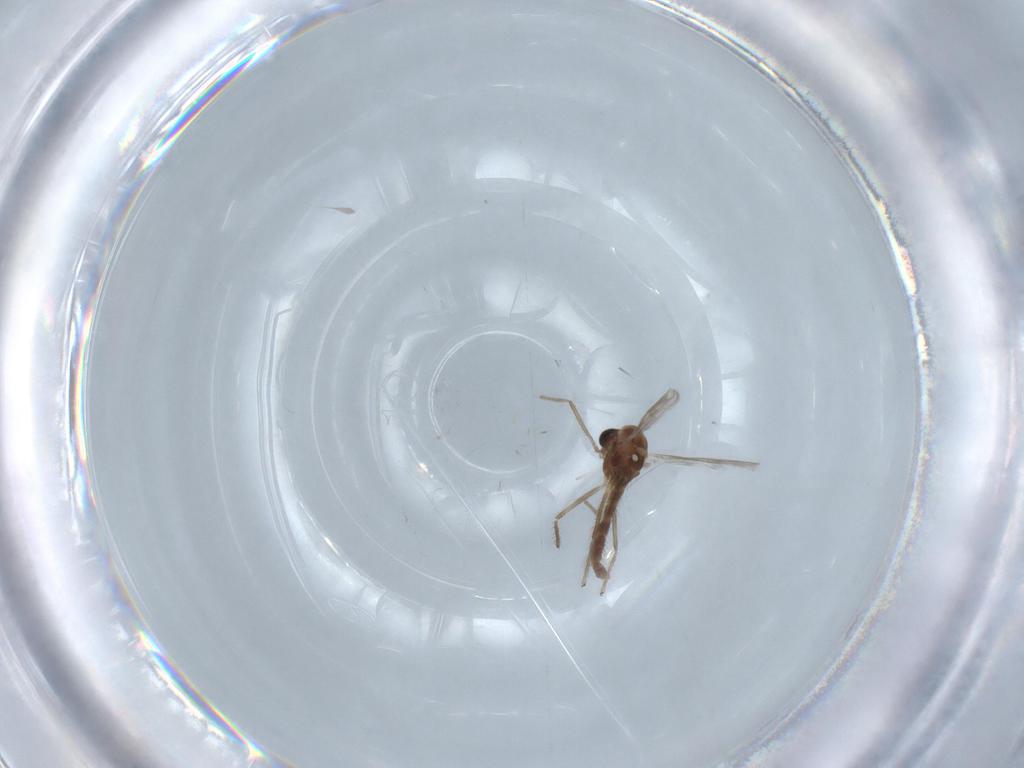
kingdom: Animalia
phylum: Arthropoda
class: Insecta
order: Diptera
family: Chironomidae
